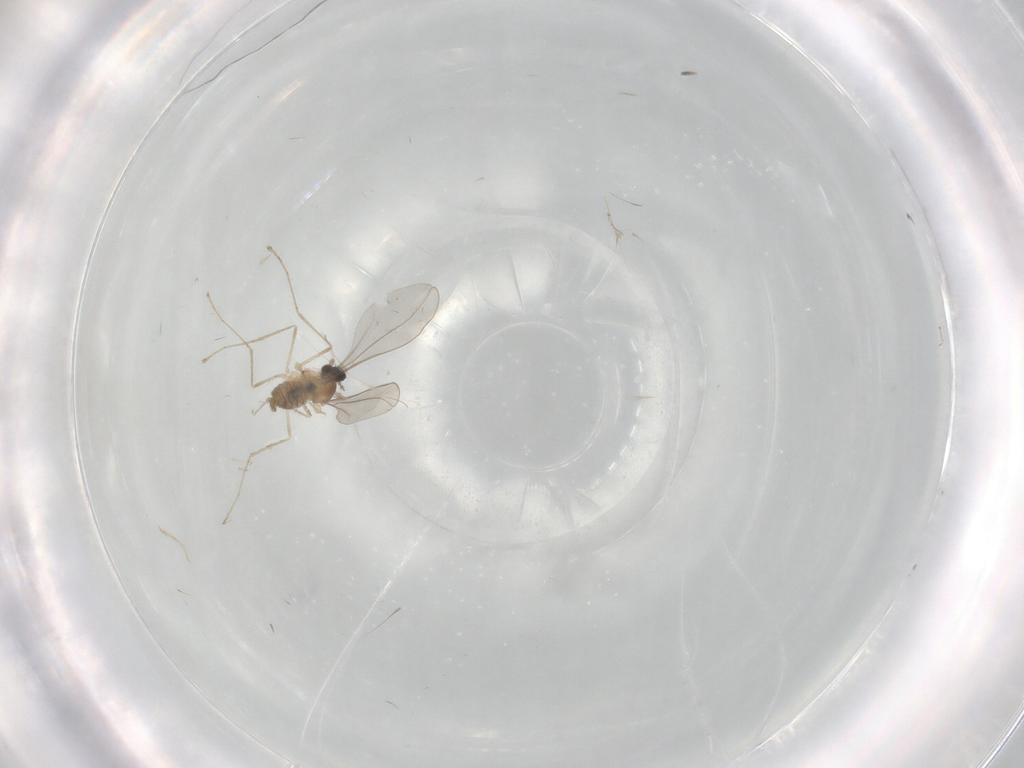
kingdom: Animalia
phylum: Arthropoda
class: Insecta
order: Diptera
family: Cecidomyiidae
